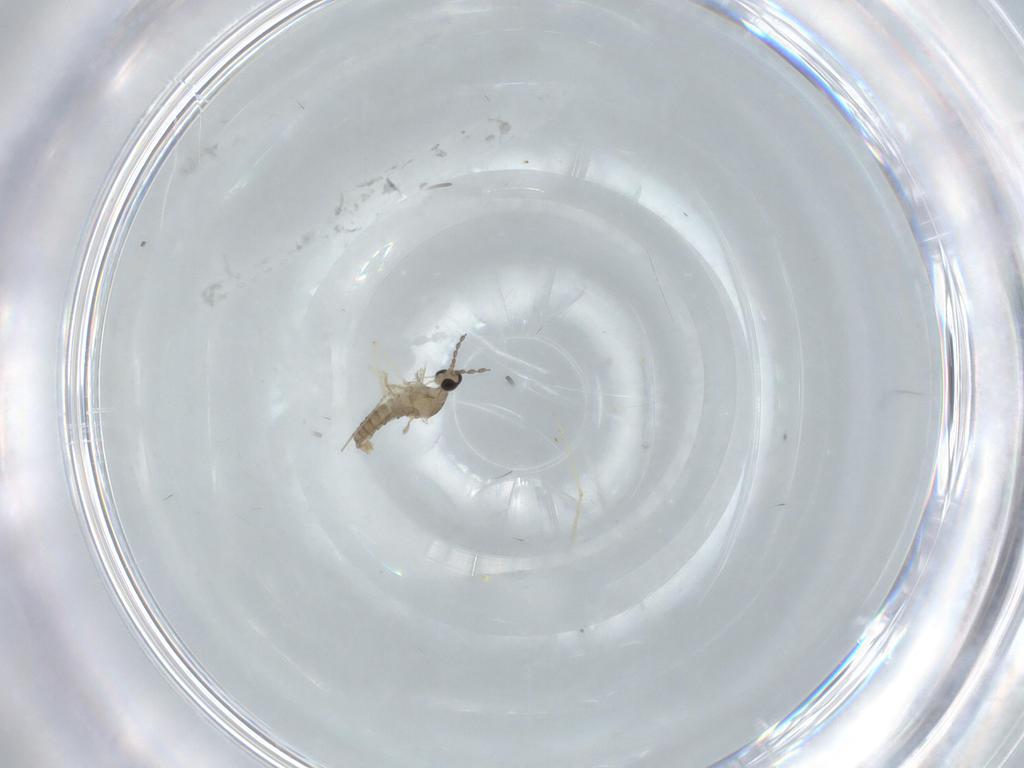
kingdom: Animalia
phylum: Arthropoda
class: Insecta
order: Diptera
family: Cecidomyiidae
